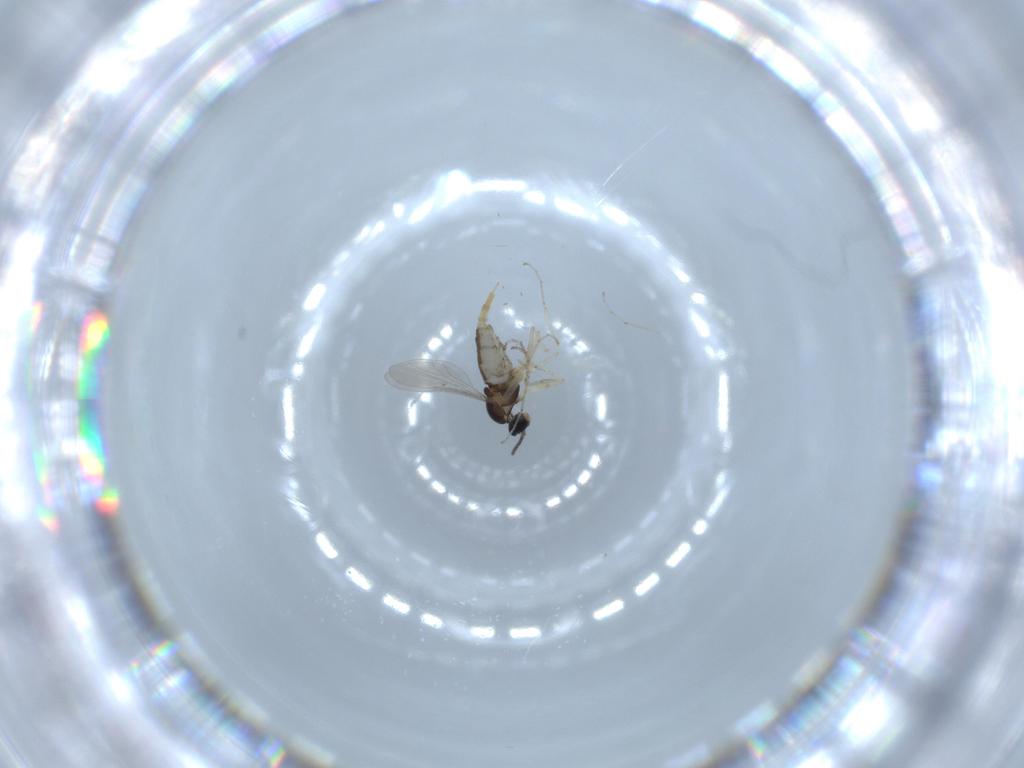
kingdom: Animalia
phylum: Arthropoda
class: Insecta
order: Diptera
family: Cecidomyiidae
